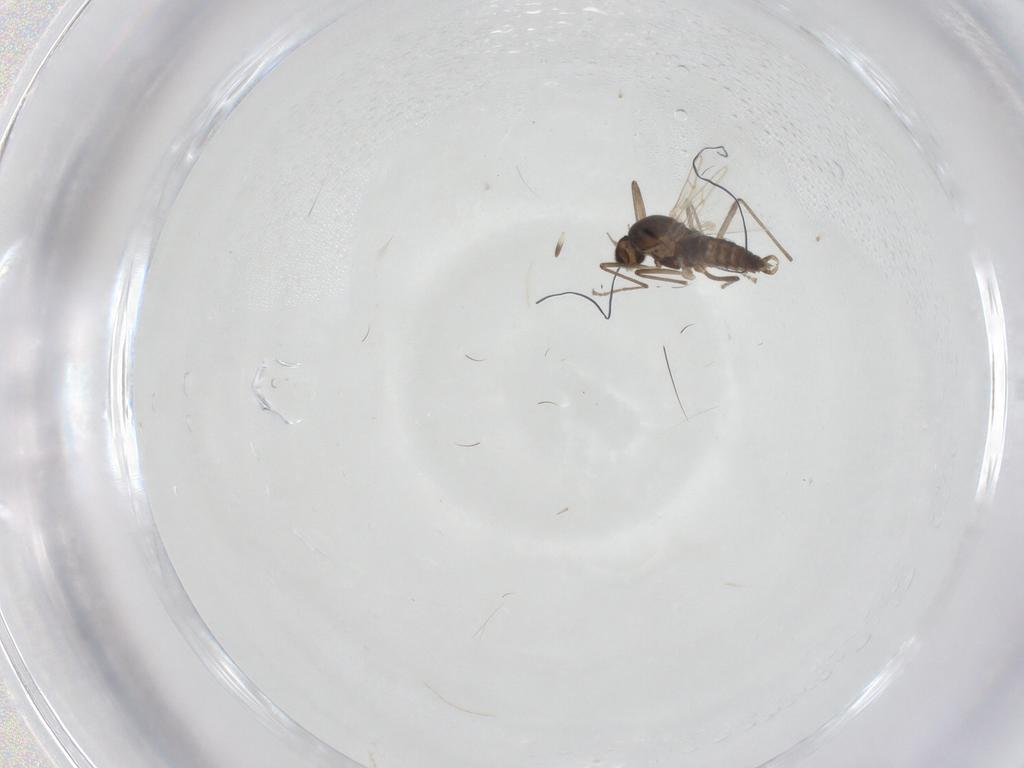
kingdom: Animalia
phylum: Arthropoda
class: Insecta
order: Diptera
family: Cecidomyiidae
